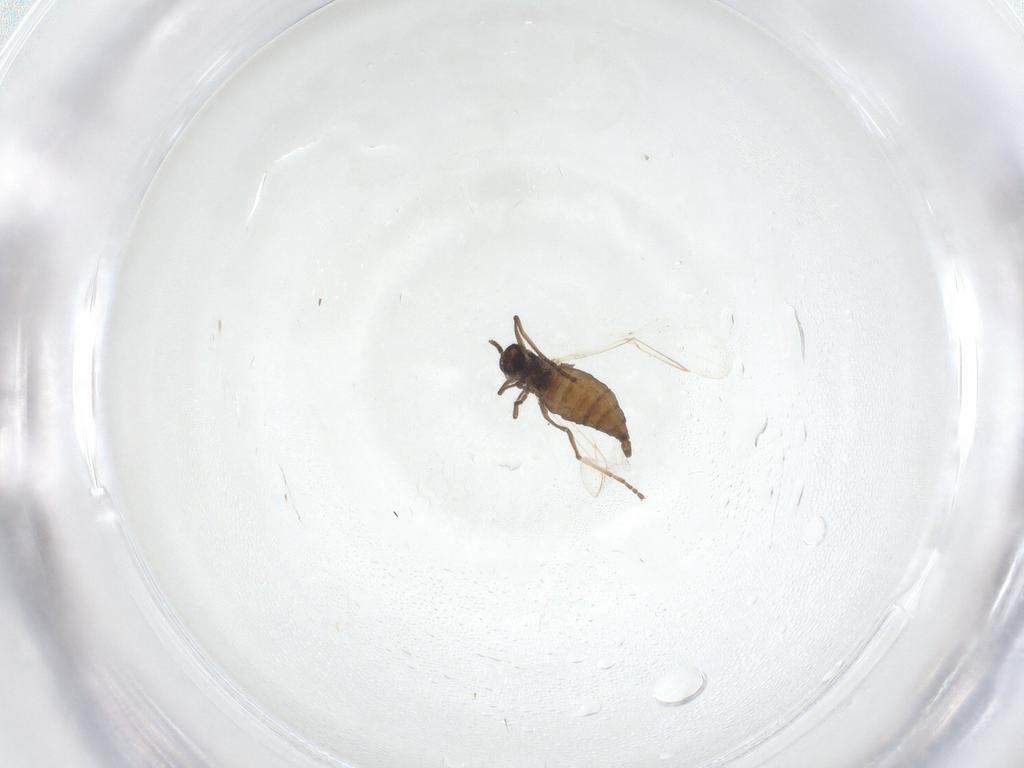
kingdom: Animalia
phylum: Arthropoda
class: Insecta
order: Diptera
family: Cecidomyiidae
